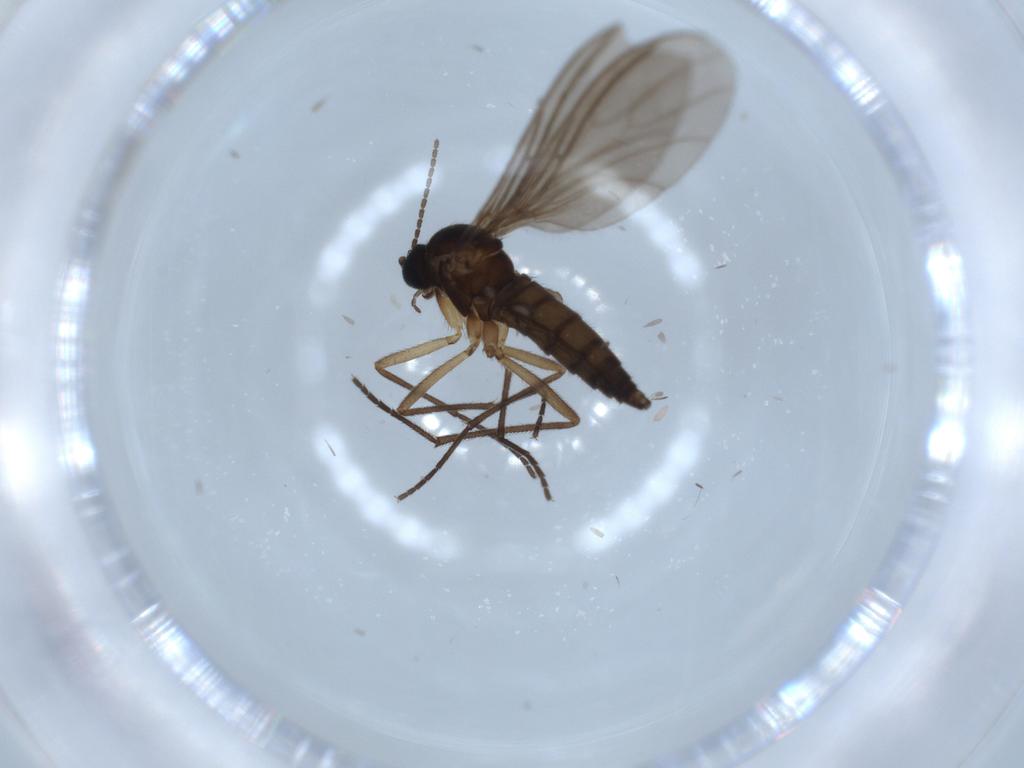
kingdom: Animalia
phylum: Arthropoda
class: Insecta
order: Diptera
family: Sciaridae
